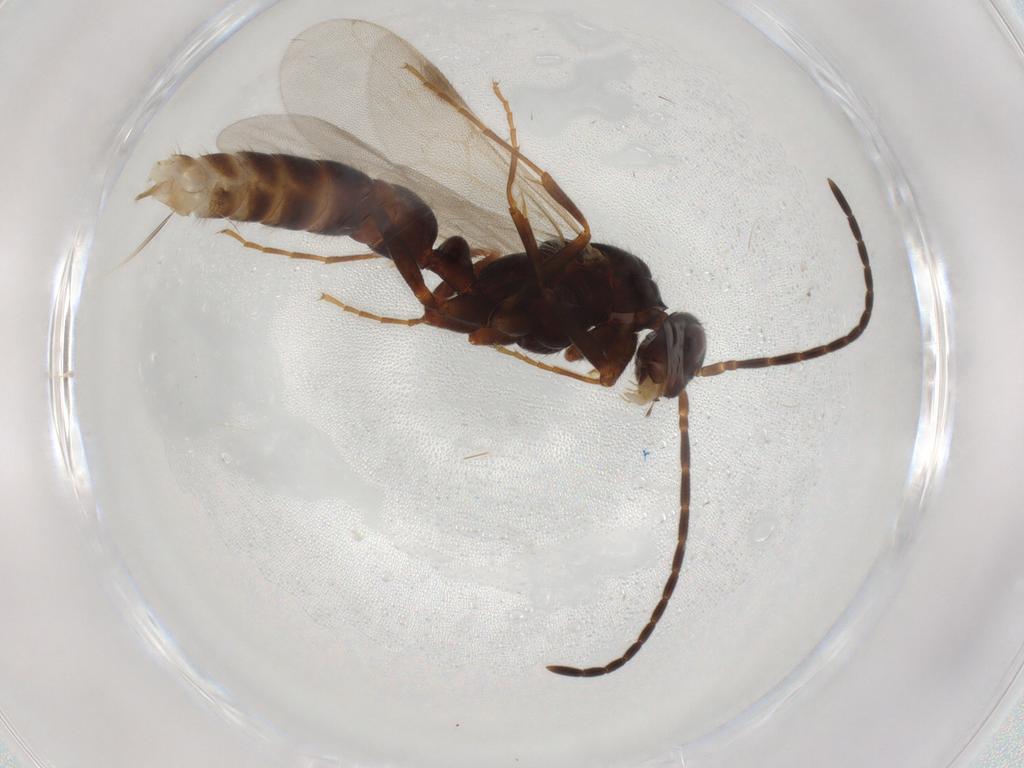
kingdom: Animalia
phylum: Arthropoda
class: Insecta
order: Hymenoptera
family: Formicidae
